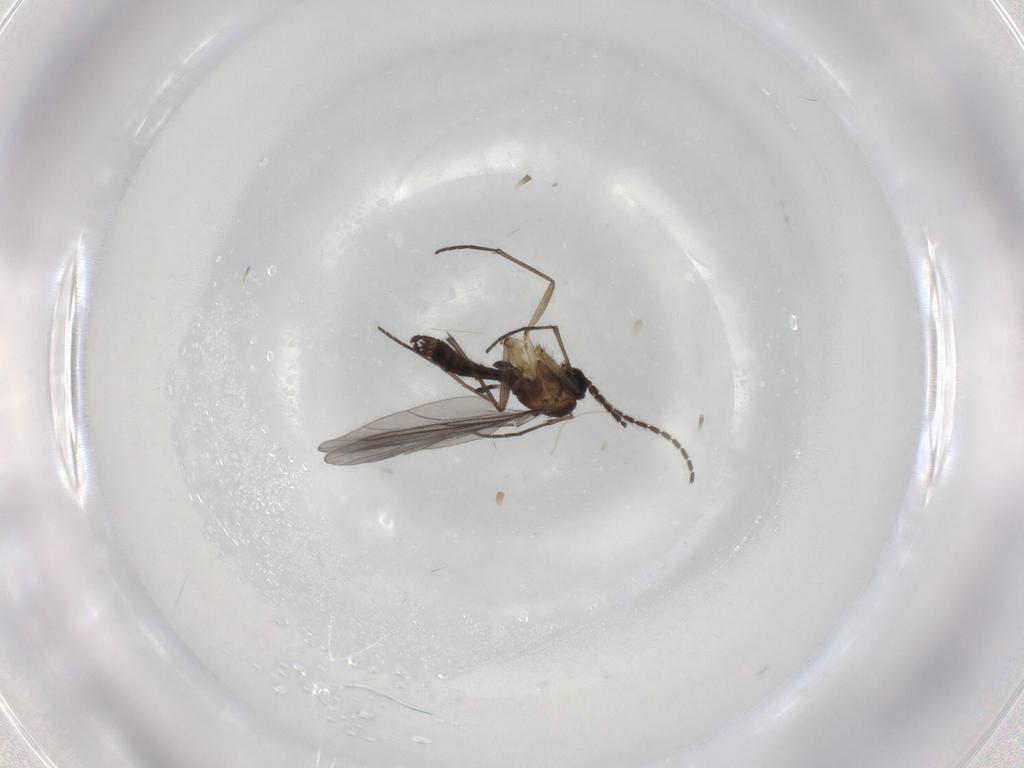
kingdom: Animalia
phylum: Arthropoda
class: Insecta
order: Diptera
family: Sciaridae
